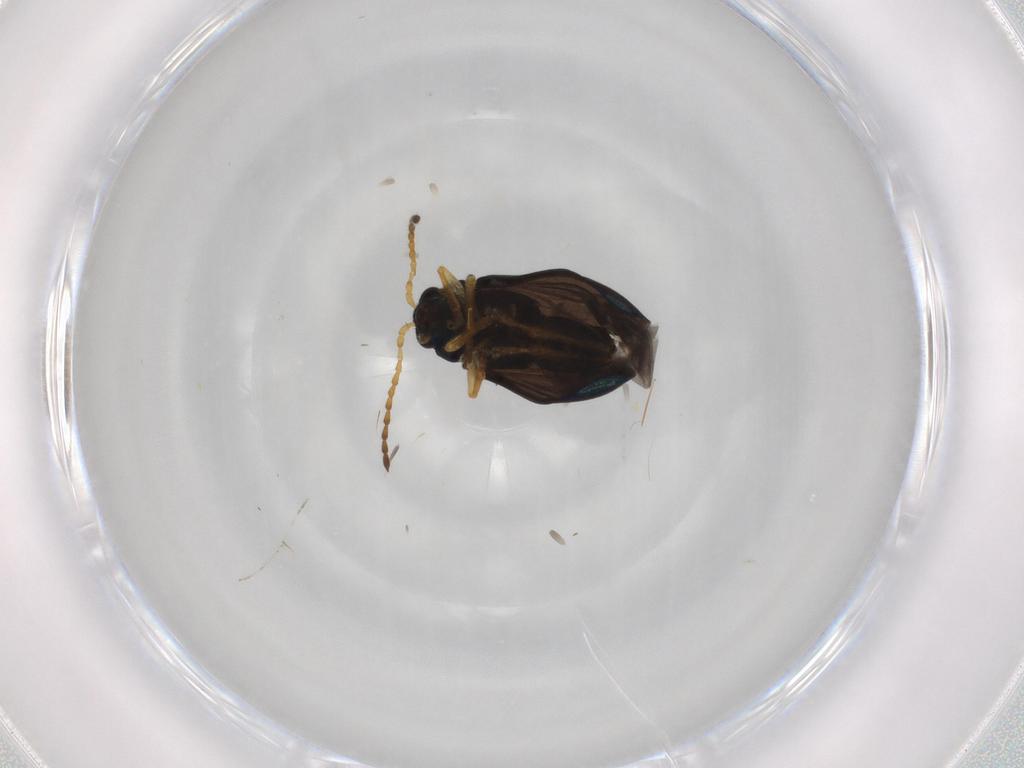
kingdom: Animalia
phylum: Arthropoda
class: Insecta
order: Coleoptera
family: Chrysomelidae
